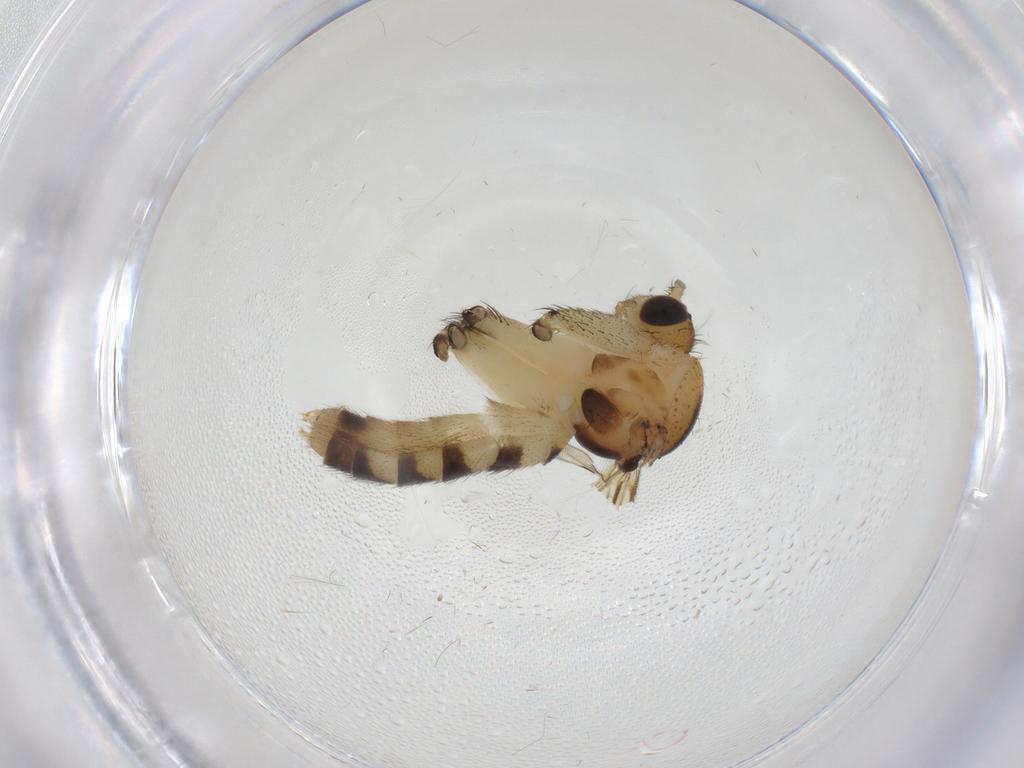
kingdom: Animalia
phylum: Arthropoda
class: Insecta
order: Diptera
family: Mycetophilidae
